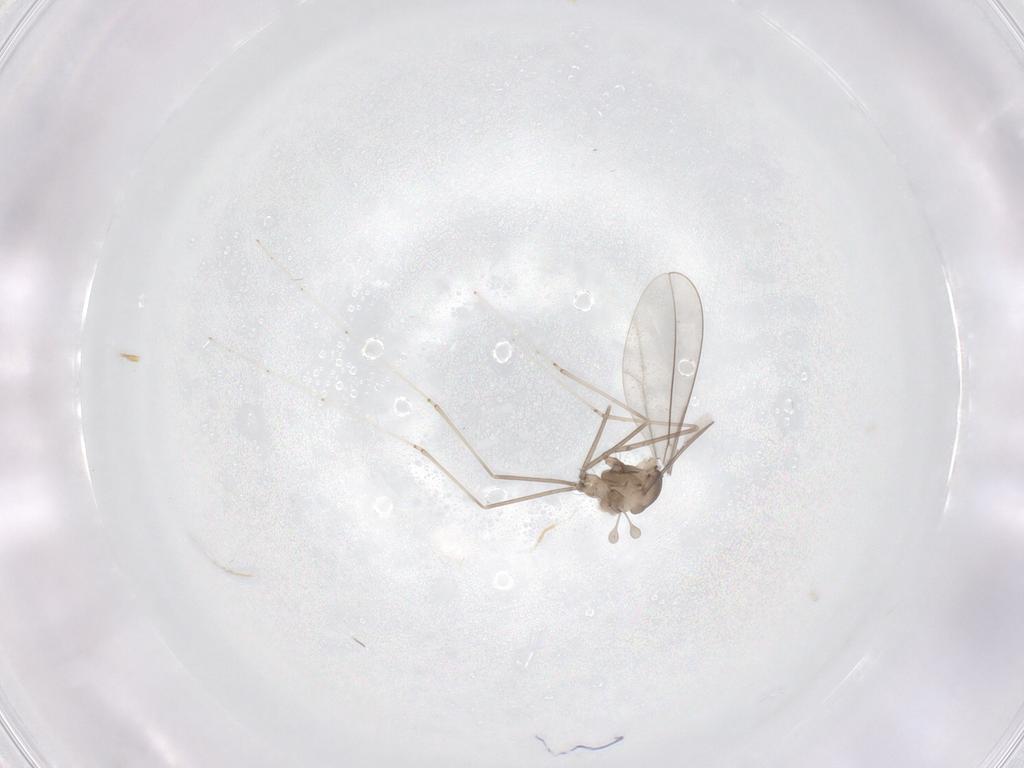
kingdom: Animalia
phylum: Arthropoda
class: Insecta
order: Diptera
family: Cecidomyiidae
